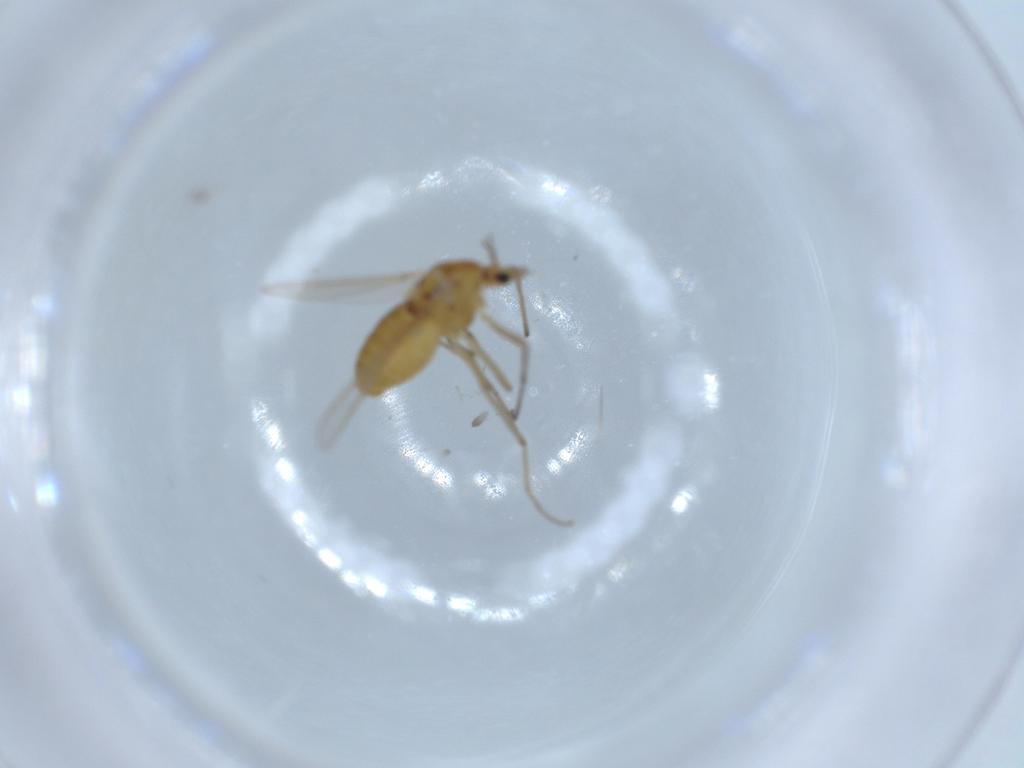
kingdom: Animalia
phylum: Arthropoda
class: Insecta
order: Diptera
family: Chironomidae
